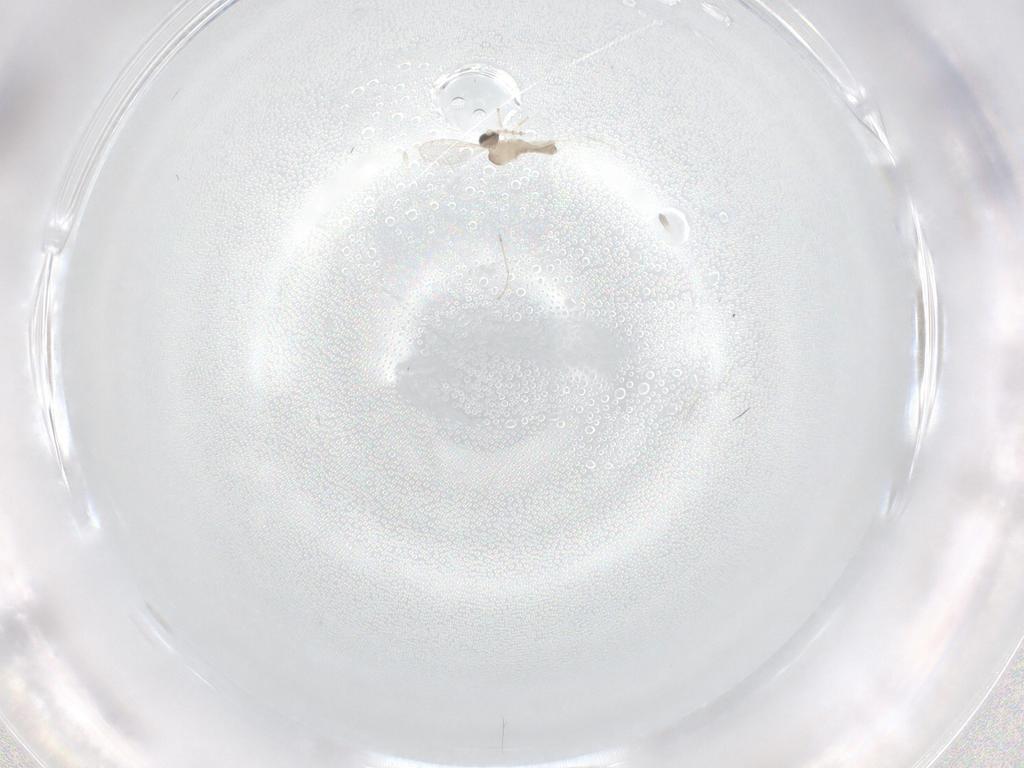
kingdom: Animalia
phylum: Arthropoda
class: Insecta
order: Diptera
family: Cecidomyiidae
